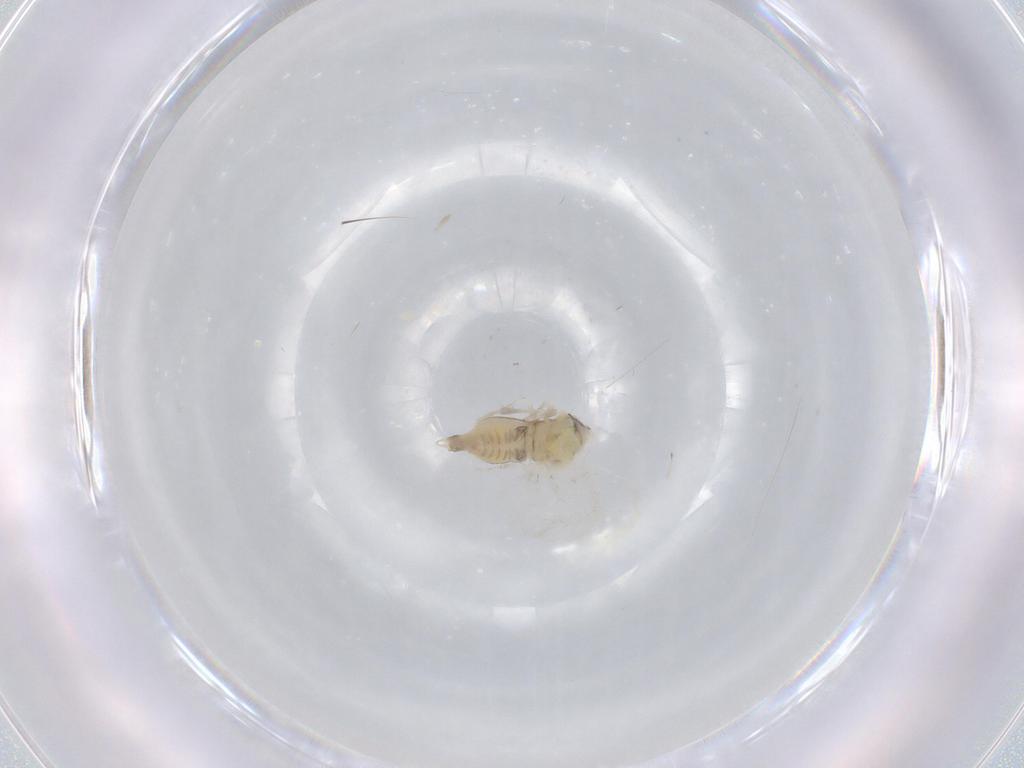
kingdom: Animalia
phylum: Arthropoda
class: Insecta
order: Hemiptera
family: Aleyrodidae
